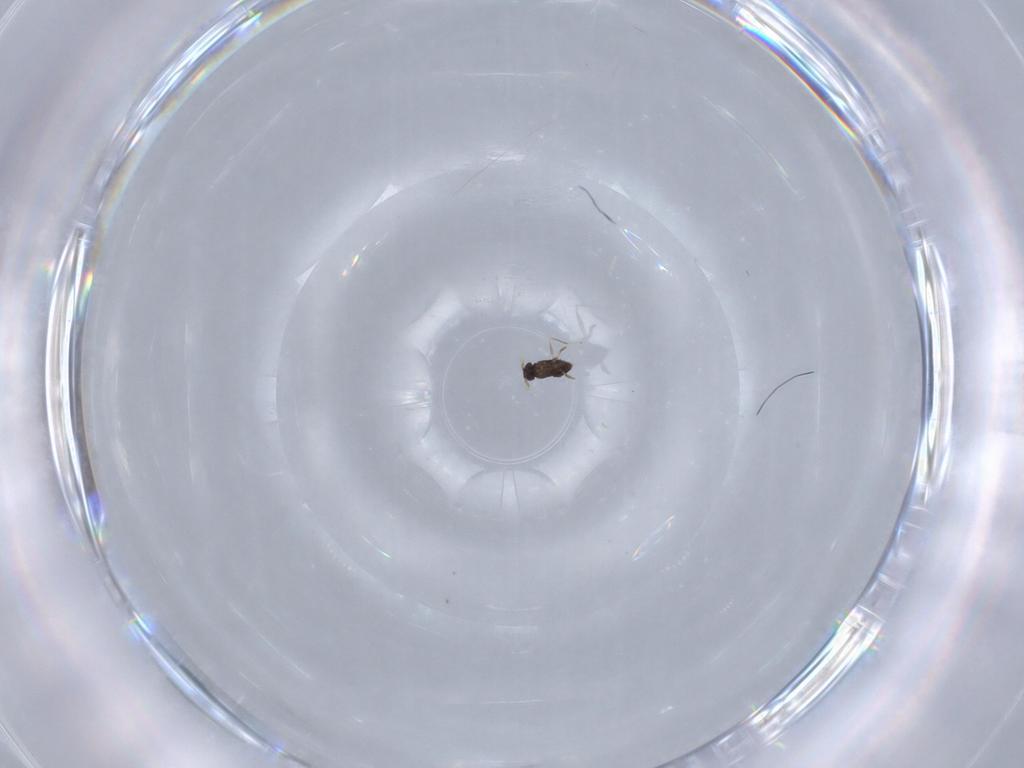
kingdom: Animalia
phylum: Arthropoda
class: Insecta
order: Hymenoptera
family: Mymaridae
